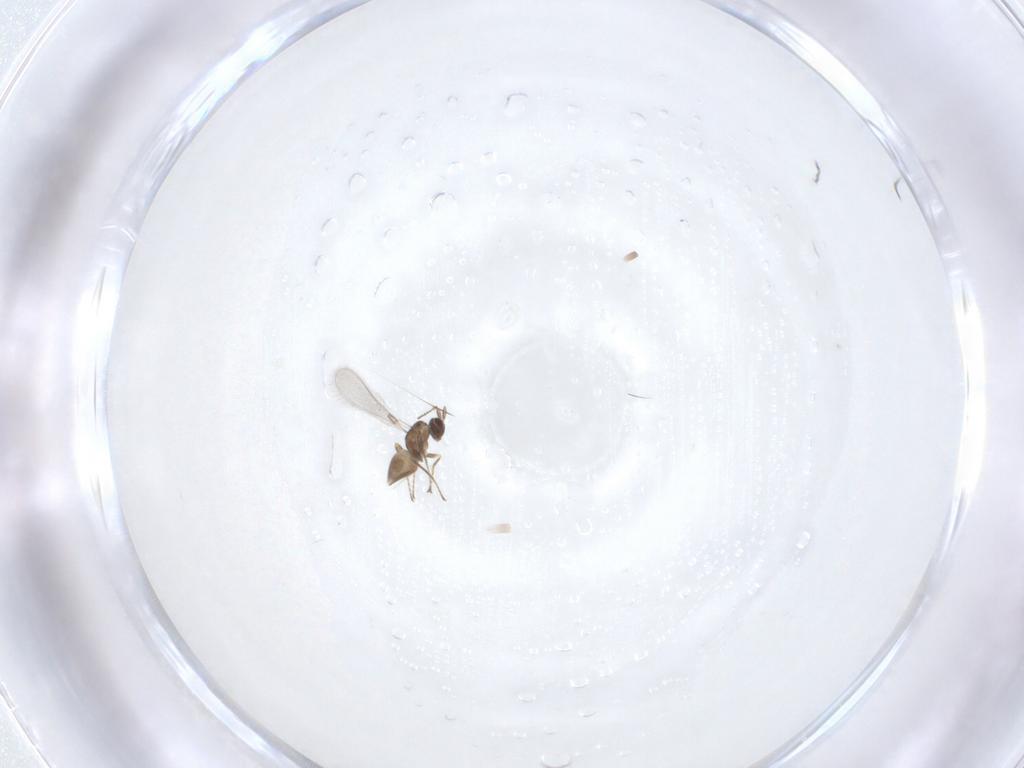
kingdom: Animalia
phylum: Arthropoda
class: Insecta
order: Hymenoptera
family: Mymaridae
